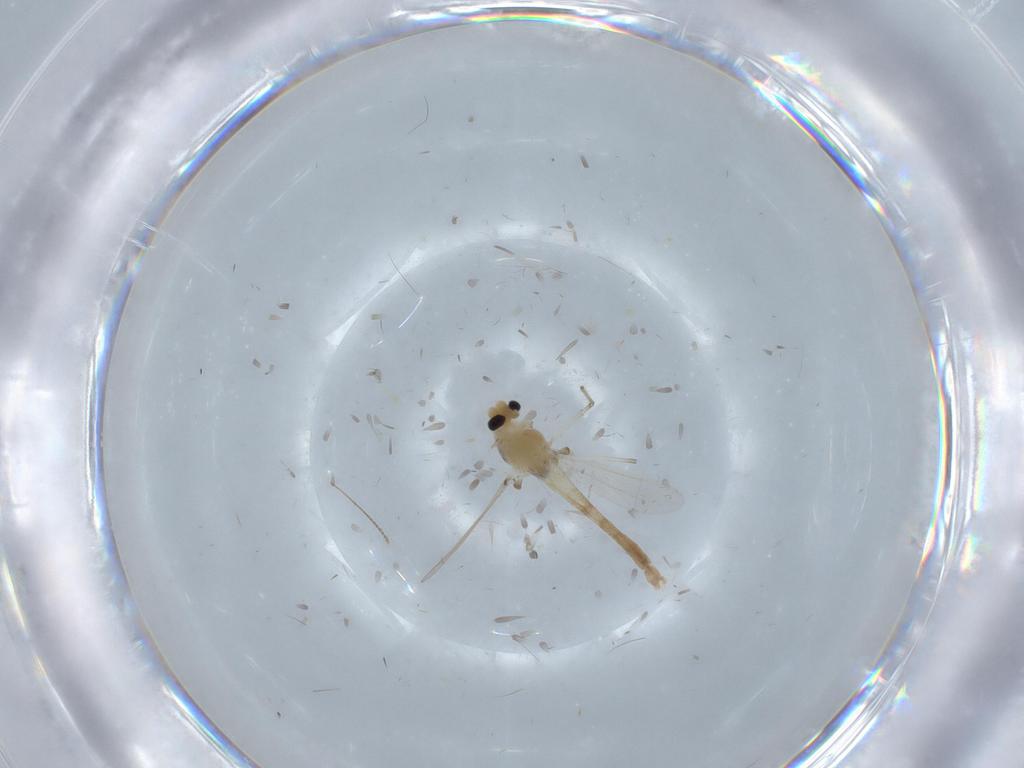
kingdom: Animalia
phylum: Arthropoda
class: Insecta
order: Diptera
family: Chironomidae
